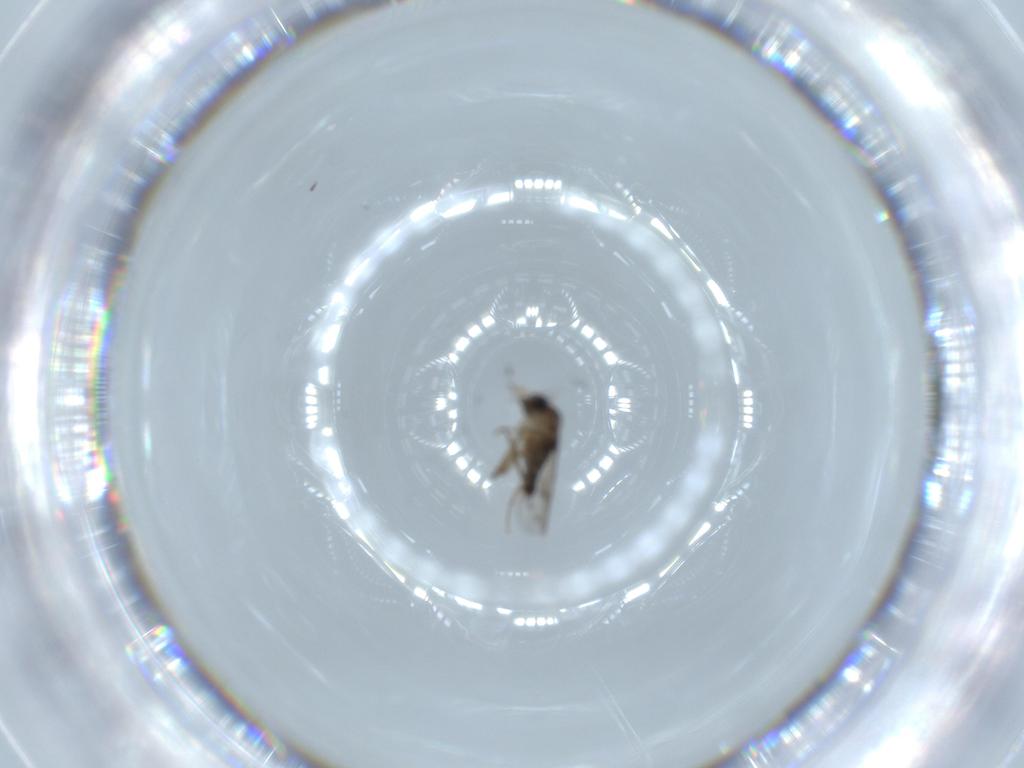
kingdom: Animalia
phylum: Arthropoda
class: Insecta
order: Diptera
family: Phoridae
